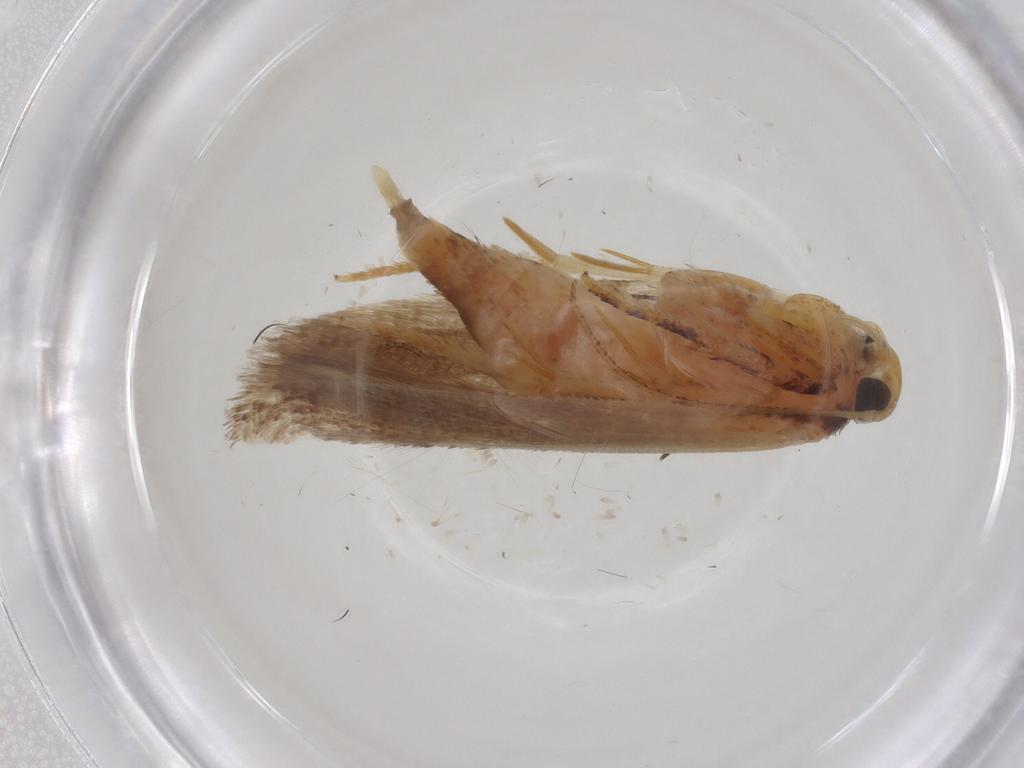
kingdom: Animalia
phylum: Arthropoda
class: Insecta
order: Lepidoptera
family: Gelechiidae
